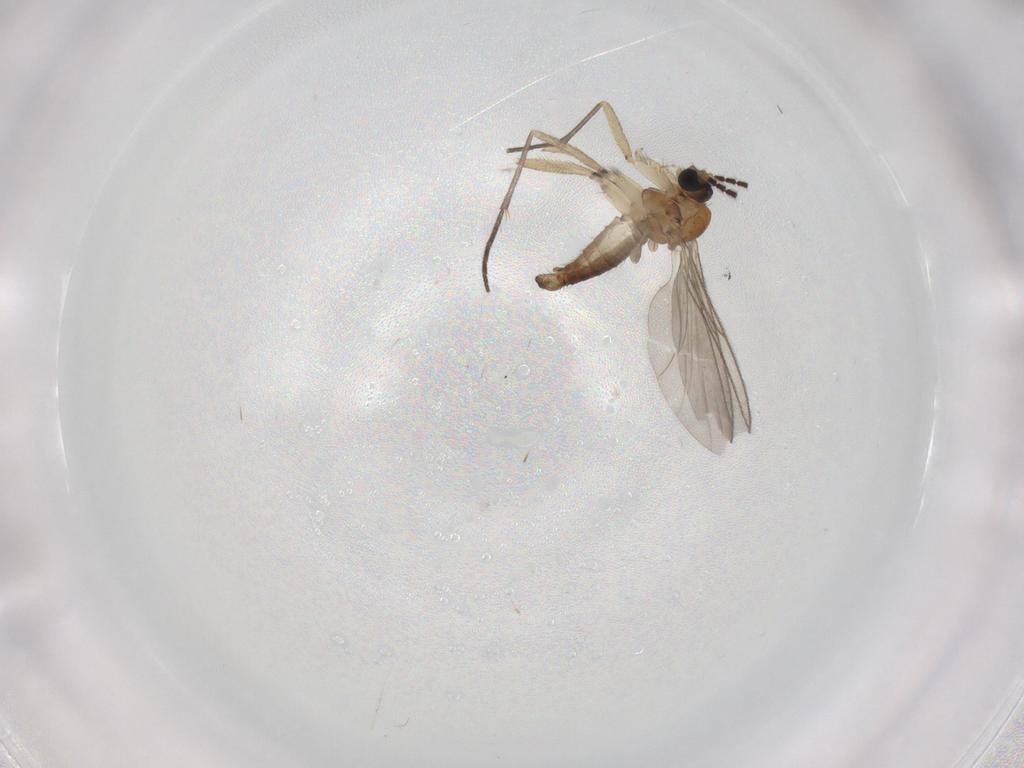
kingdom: Animalia
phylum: Arthropoda
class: Insecta
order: Diptera
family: Sciaridae
